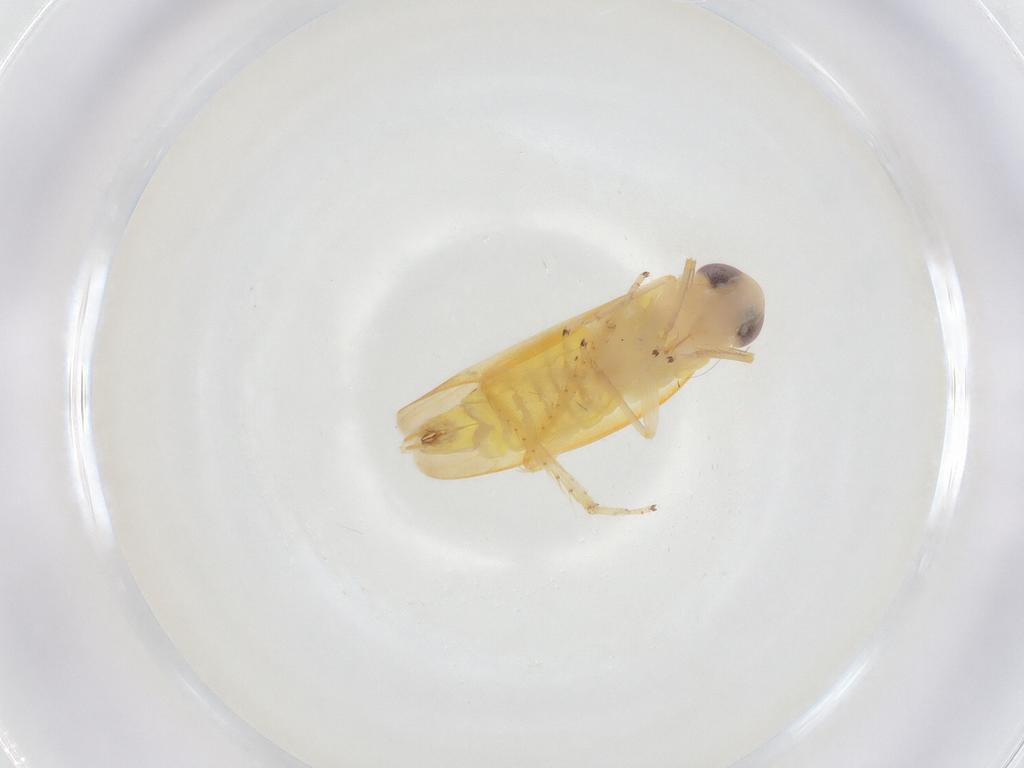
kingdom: Animalia
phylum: Arthropoda
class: Insecta
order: Hemiptera
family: Cicadellidae
